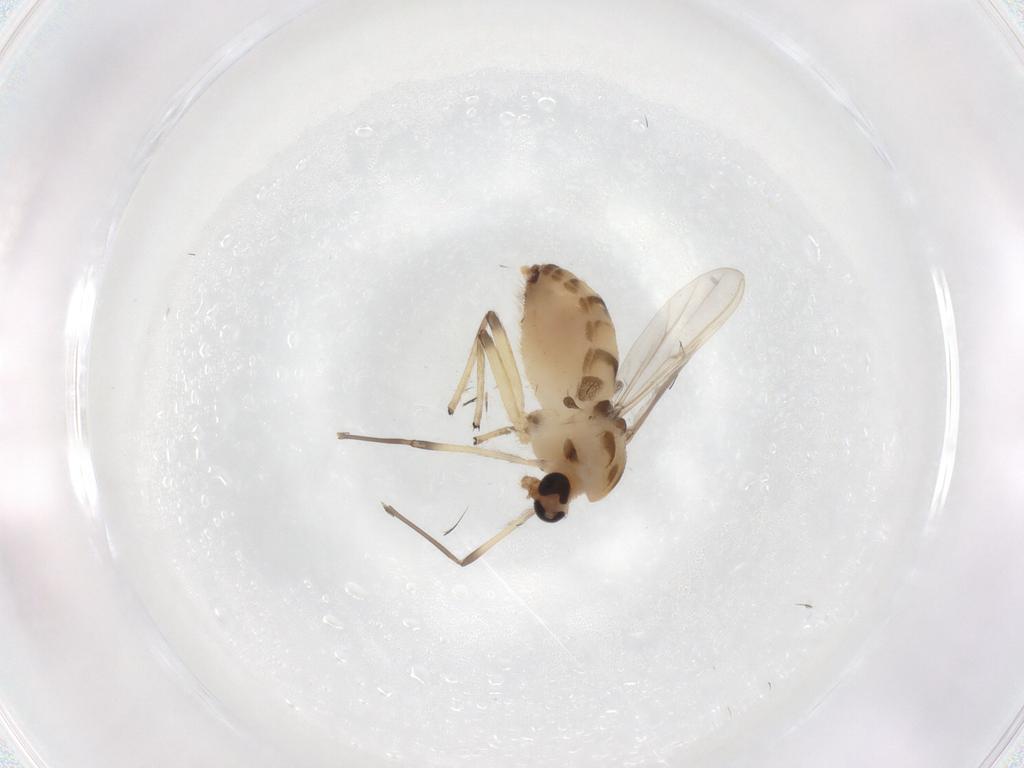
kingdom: Animalia
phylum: Arthropoda
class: Insecta
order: Diptera
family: Chironomidae
